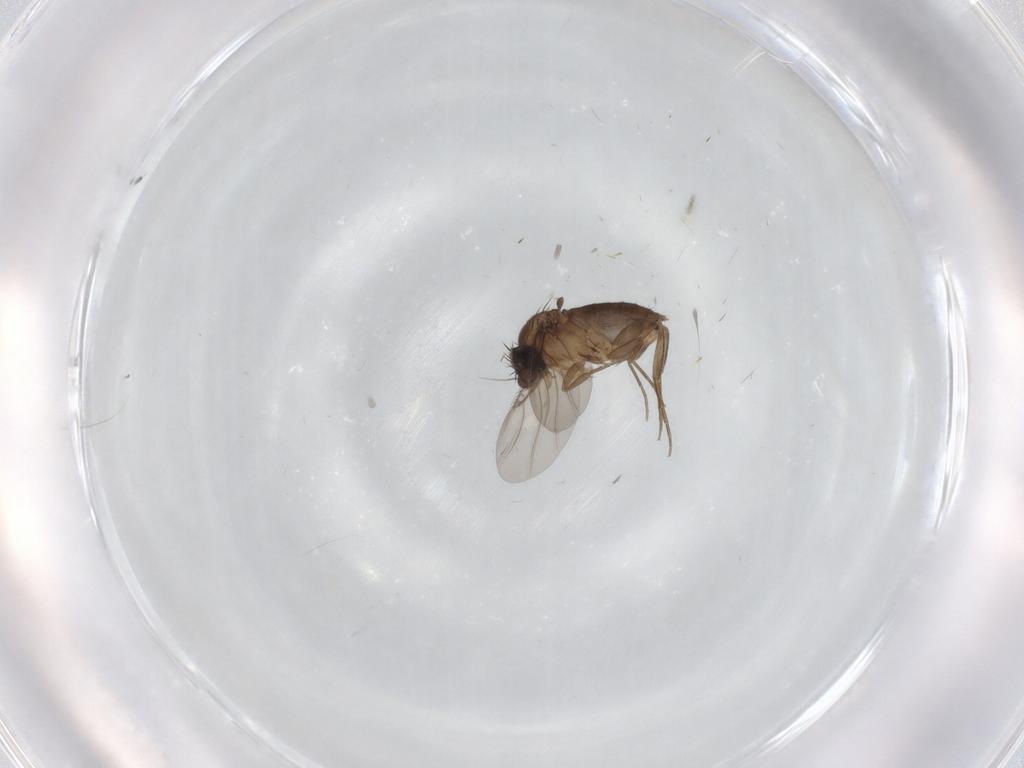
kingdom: Animalia
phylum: Arthropoda
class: Insecta
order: Diptera
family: Phoridae
